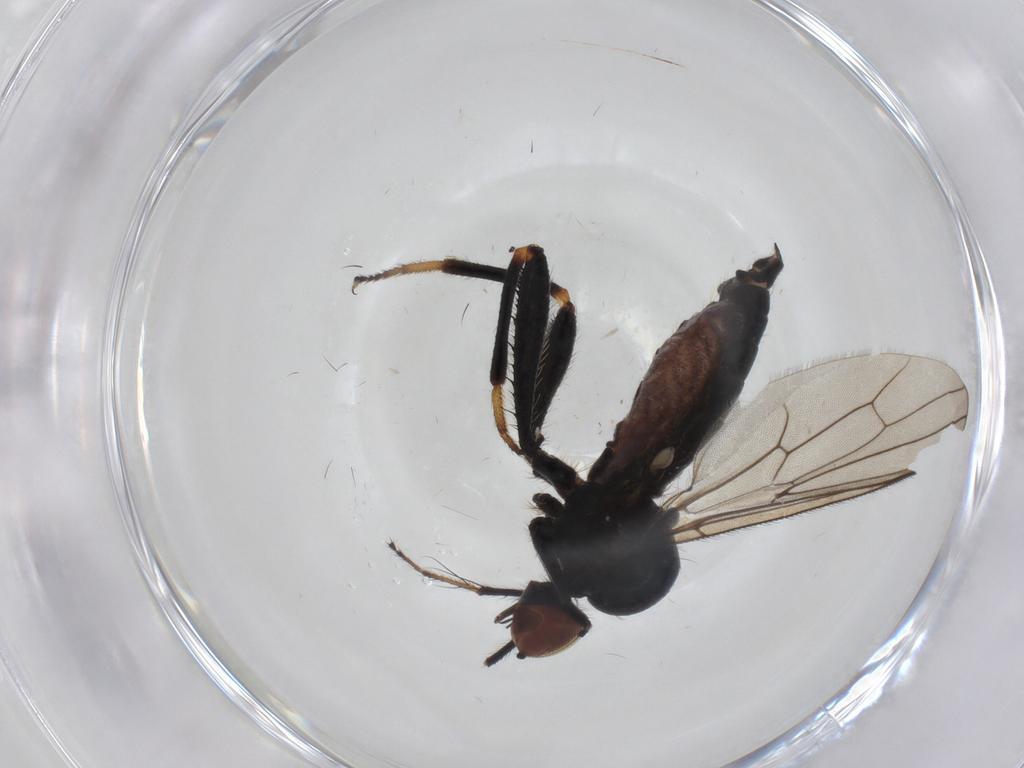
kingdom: Animalia
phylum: Arthropoda
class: Insecta
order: Diptera
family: Hybotidae
